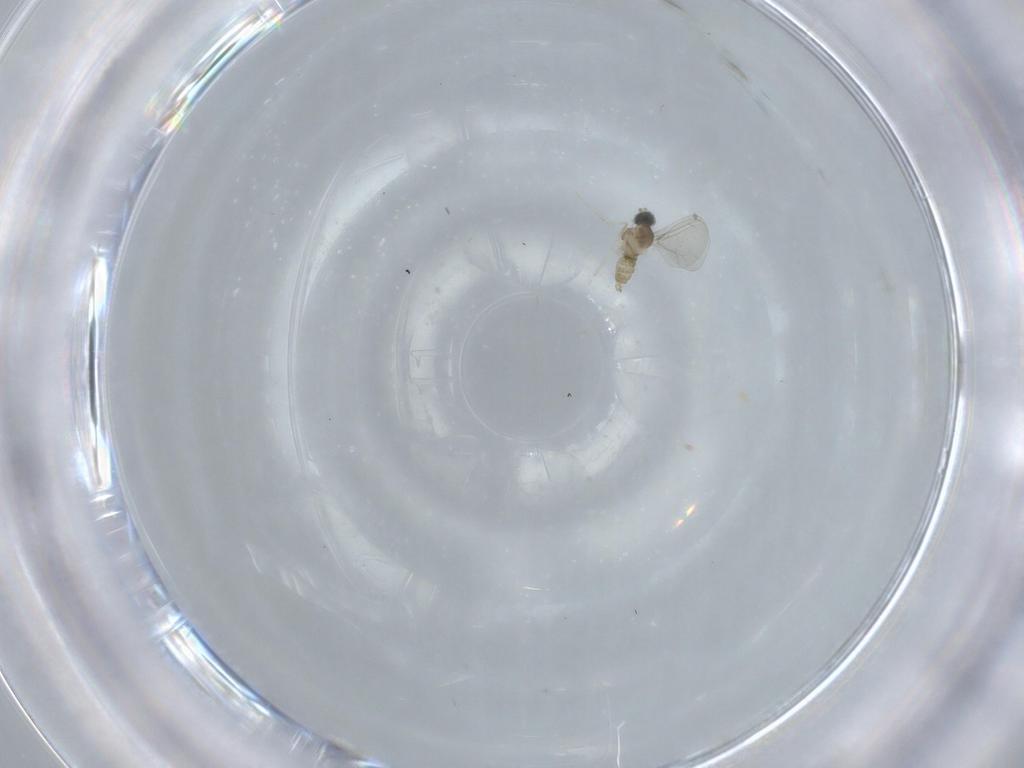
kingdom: Animalia
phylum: Arthropoda
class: Insecta
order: Diptera
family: Cecidomyiidae
